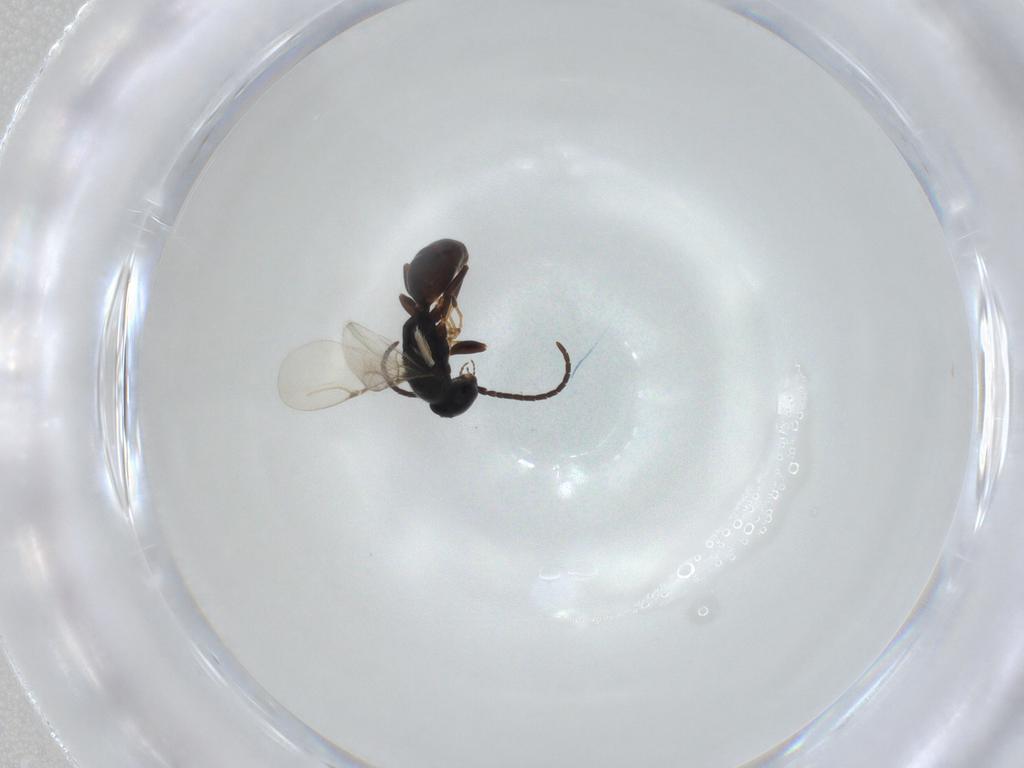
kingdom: Animalia
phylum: Arthropoda
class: Insecta
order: Hymenoptera
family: Bethylidae
